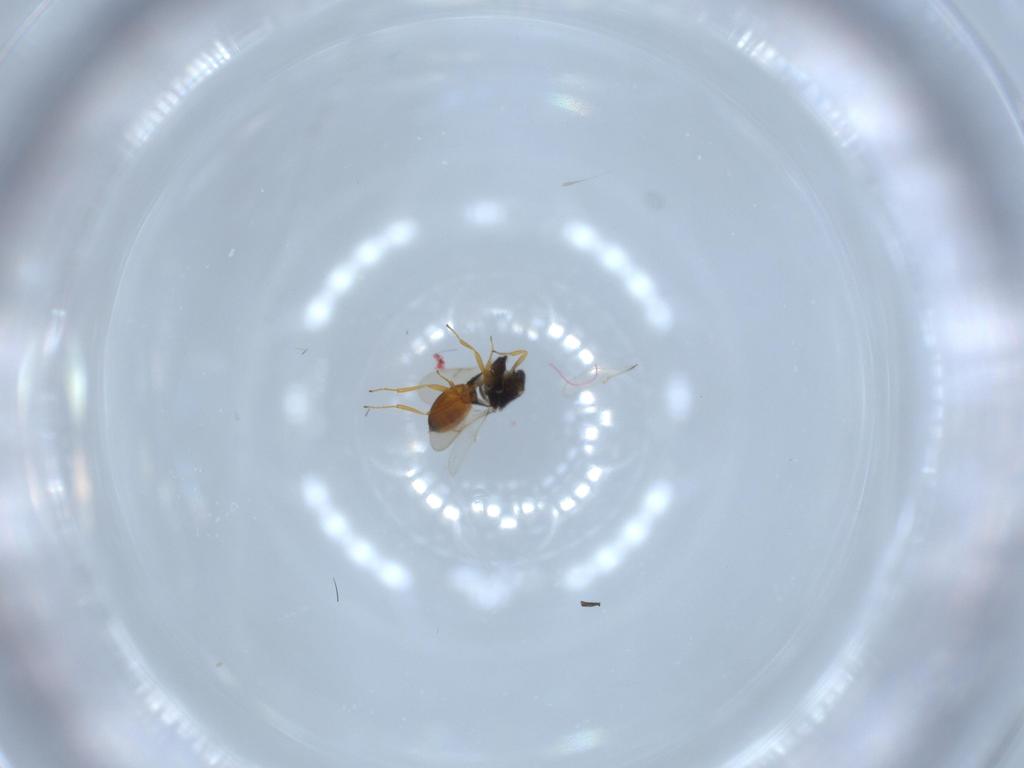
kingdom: Animalia
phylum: Arthropoda
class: Insecta
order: Hymenoptera
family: Scelionidae
